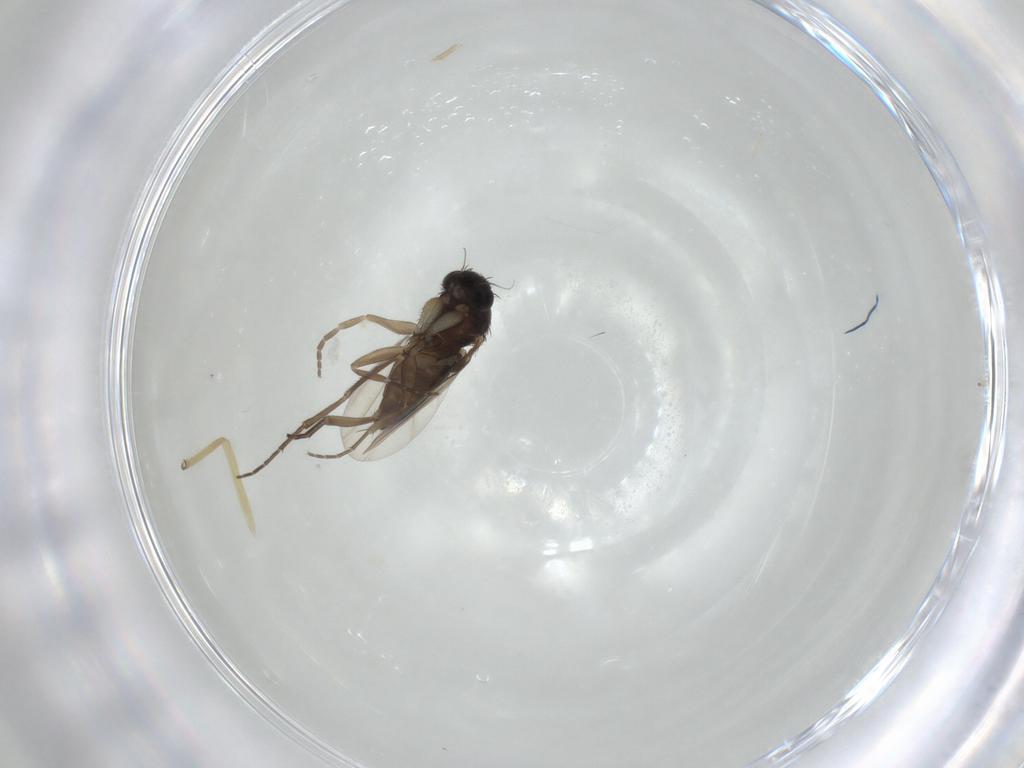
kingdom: Animalia
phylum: Arthropoda
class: Insecta
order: Diptera
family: Phoridae
